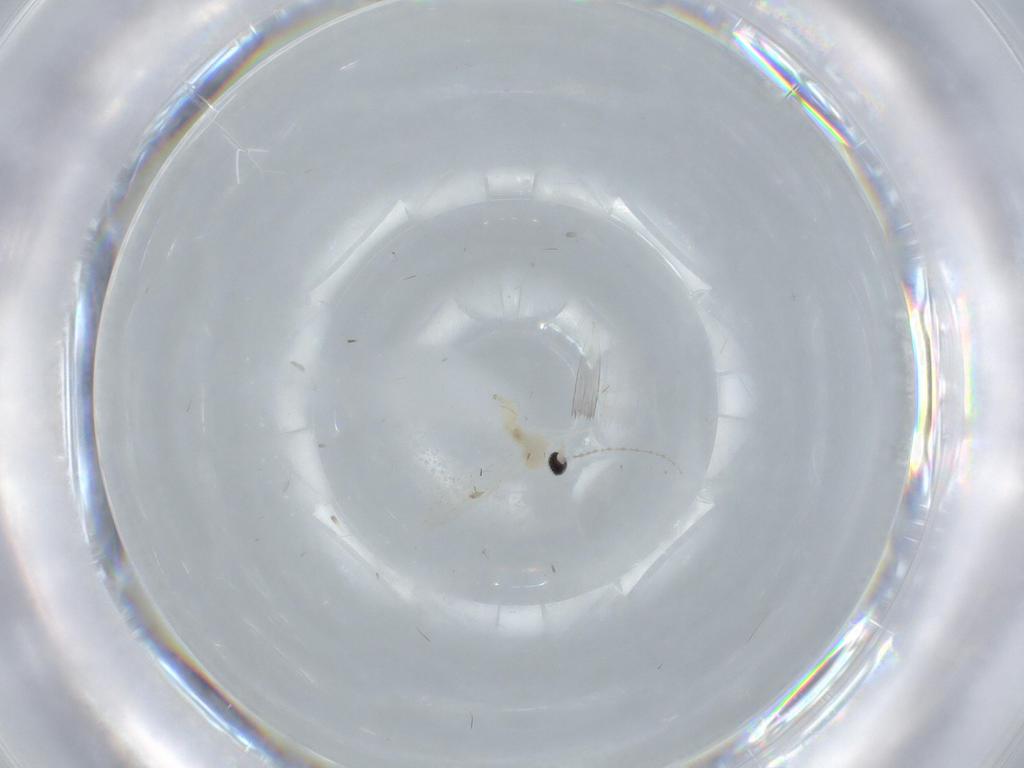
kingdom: Animalia
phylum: Arthropoda
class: Insecta
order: Diptera
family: Cecidomyiidae
